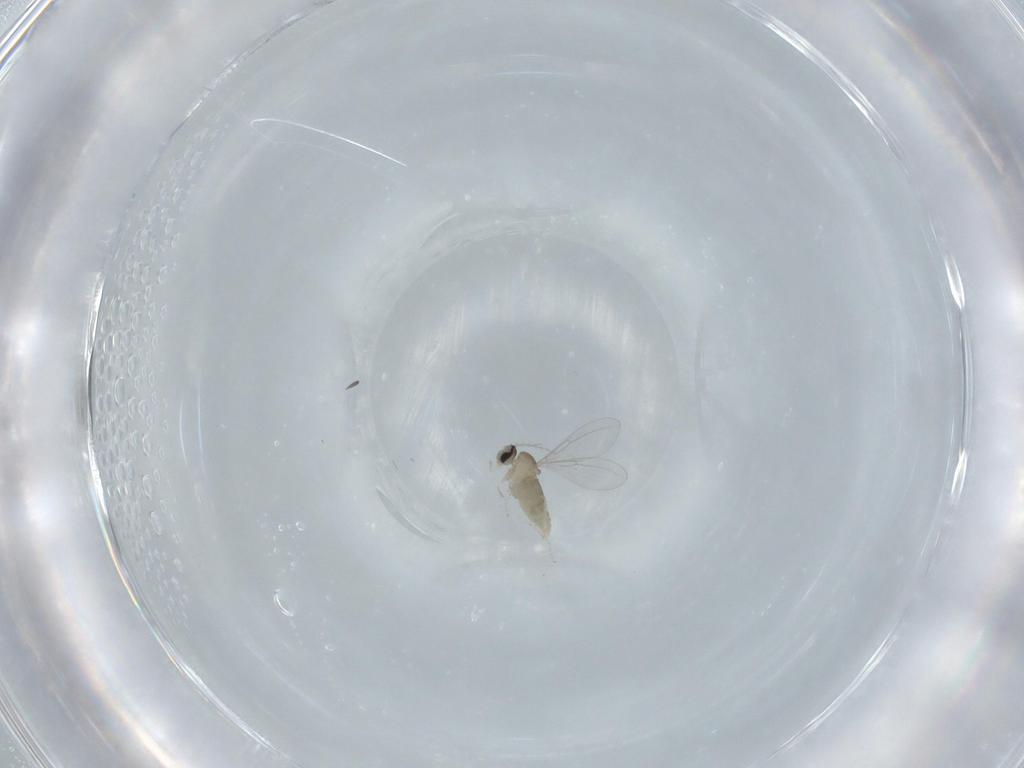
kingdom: Animalia
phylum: Arthropoda
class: Insecta
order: Diptera
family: Cecidomyiidae
